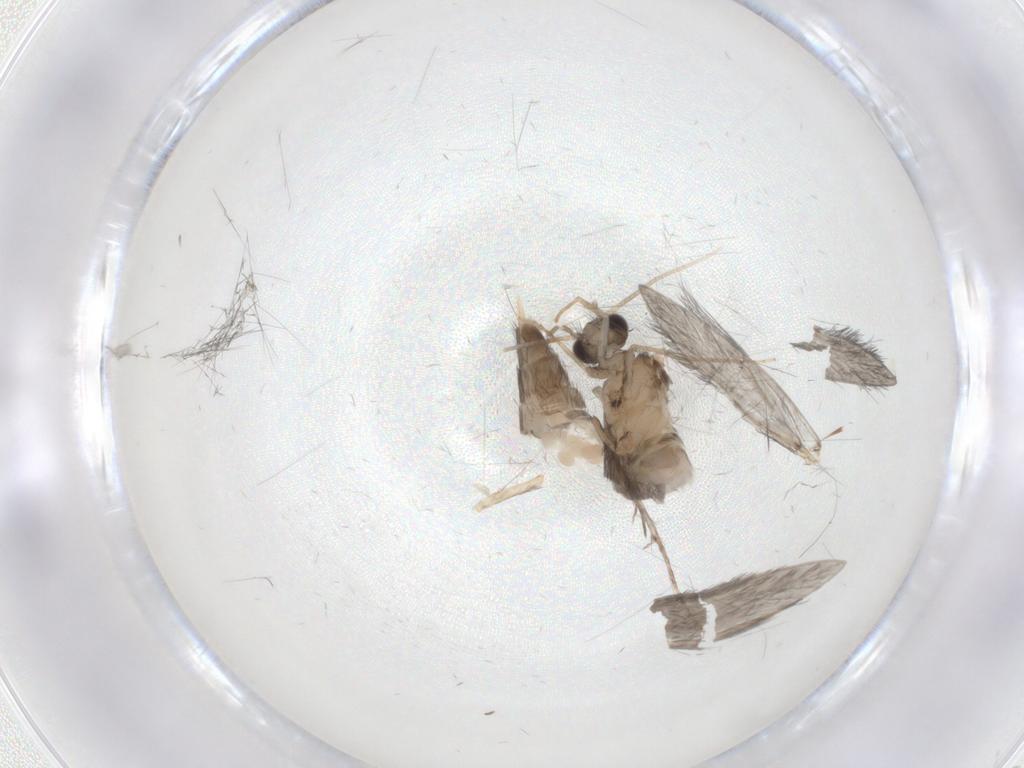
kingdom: Animalia
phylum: Arthropoda
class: Insecta
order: Trichoptera
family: Hydroptilidae
